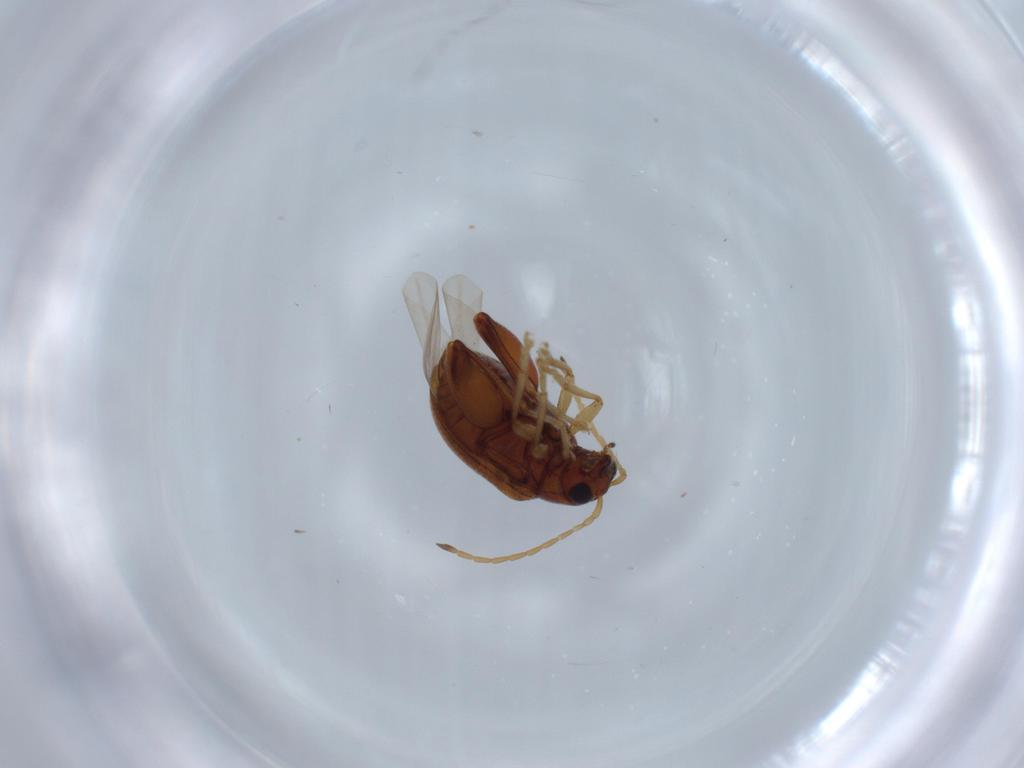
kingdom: Animalia
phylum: Arthropoda
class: Insecta
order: Coleoptera
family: Chrysomelidae
